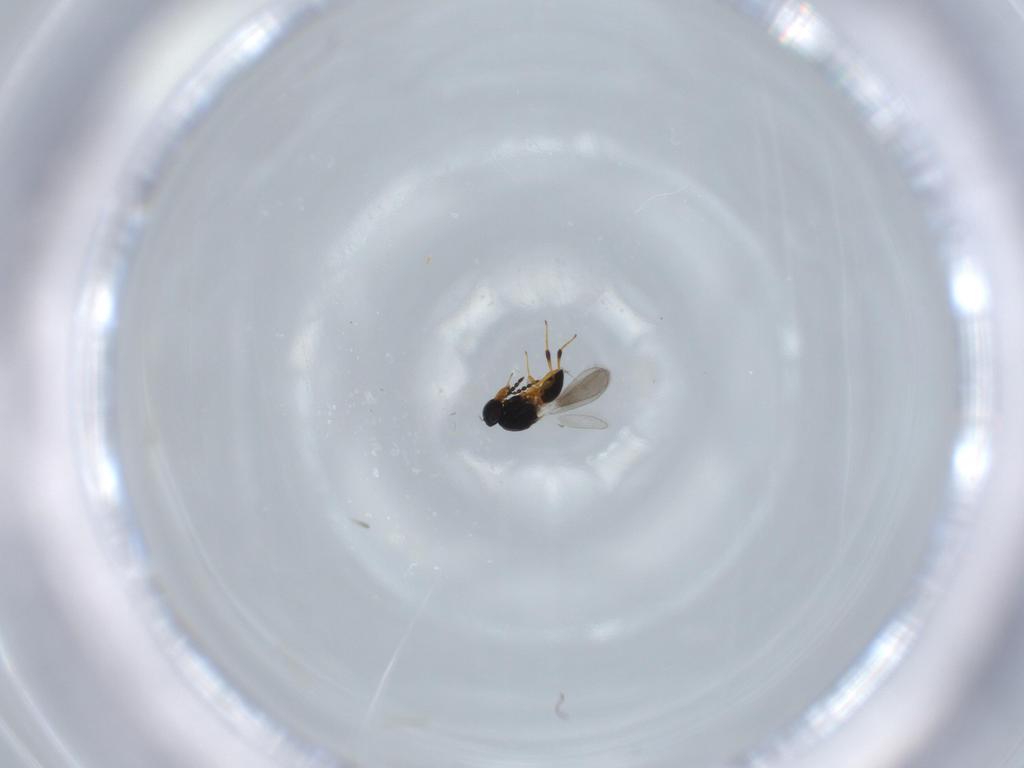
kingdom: Animalia
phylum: Arthropoda
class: Insecta
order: Hymenoptera
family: Platygastridae
